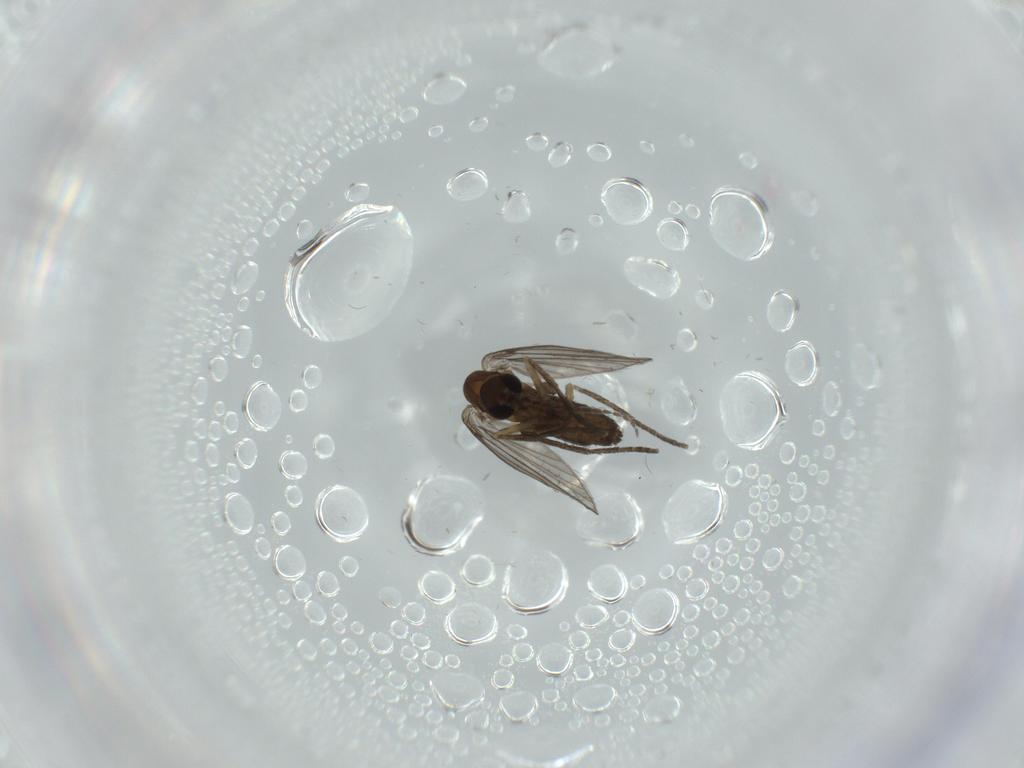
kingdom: Animalia
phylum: Arthropoda
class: Insecta
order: Diptera
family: Psychodidae
